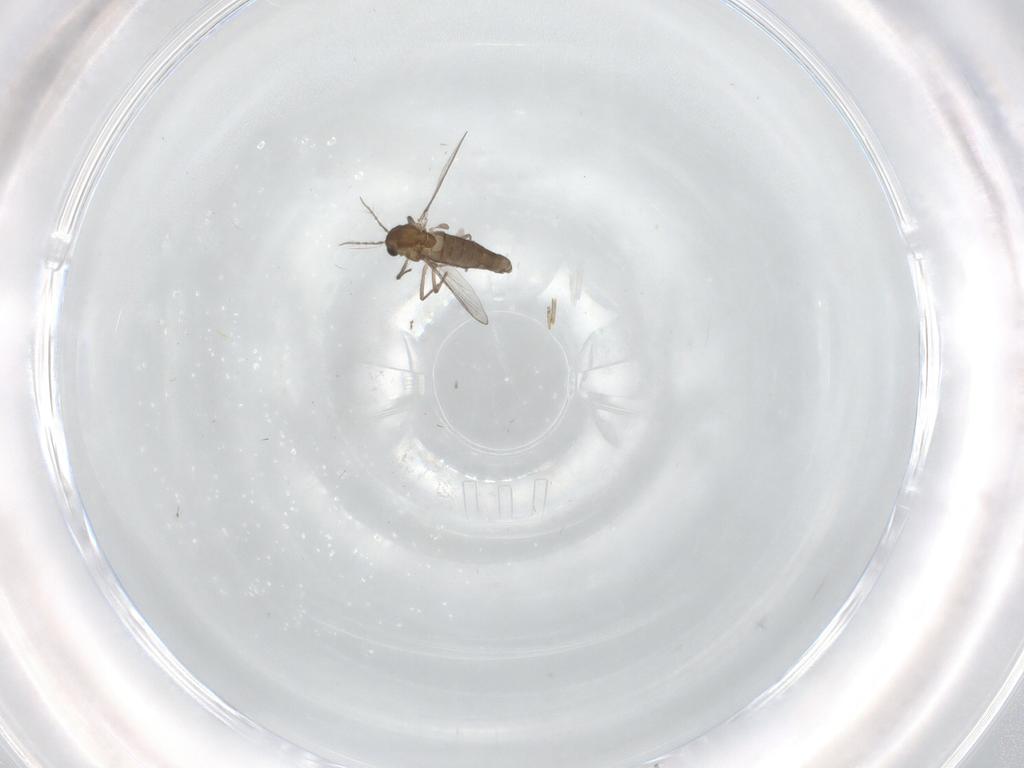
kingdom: Animalia
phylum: Arthropoda
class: Insecta
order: Diptera
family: Chironomidae
